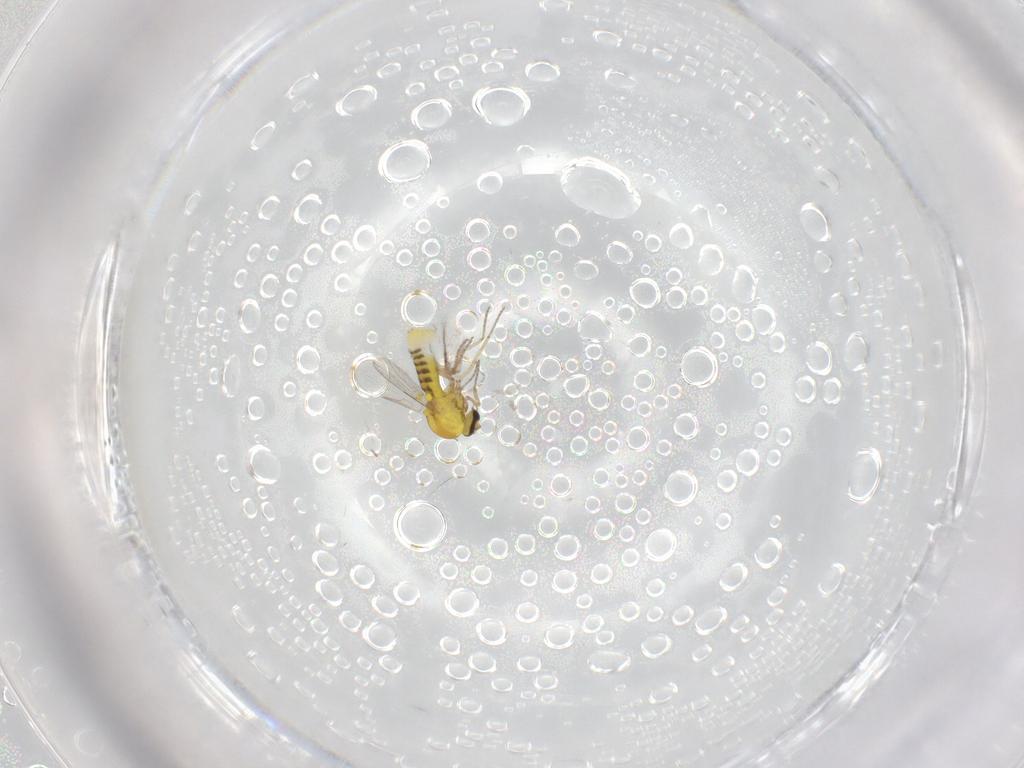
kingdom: Animalia
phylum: Arthropoda
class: Insecta
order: Diptera
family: Ceratopogonidae
